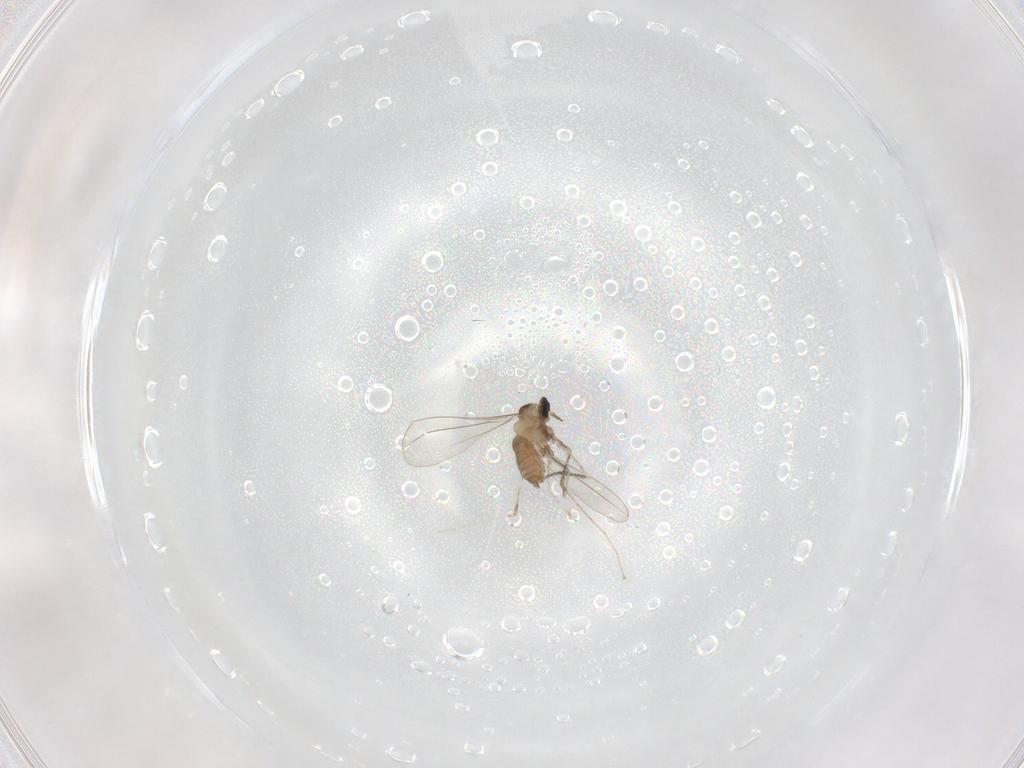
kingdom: Animalia
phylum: Arthropoda
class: Insecta
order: Diptera
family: Cecidomyiidae
